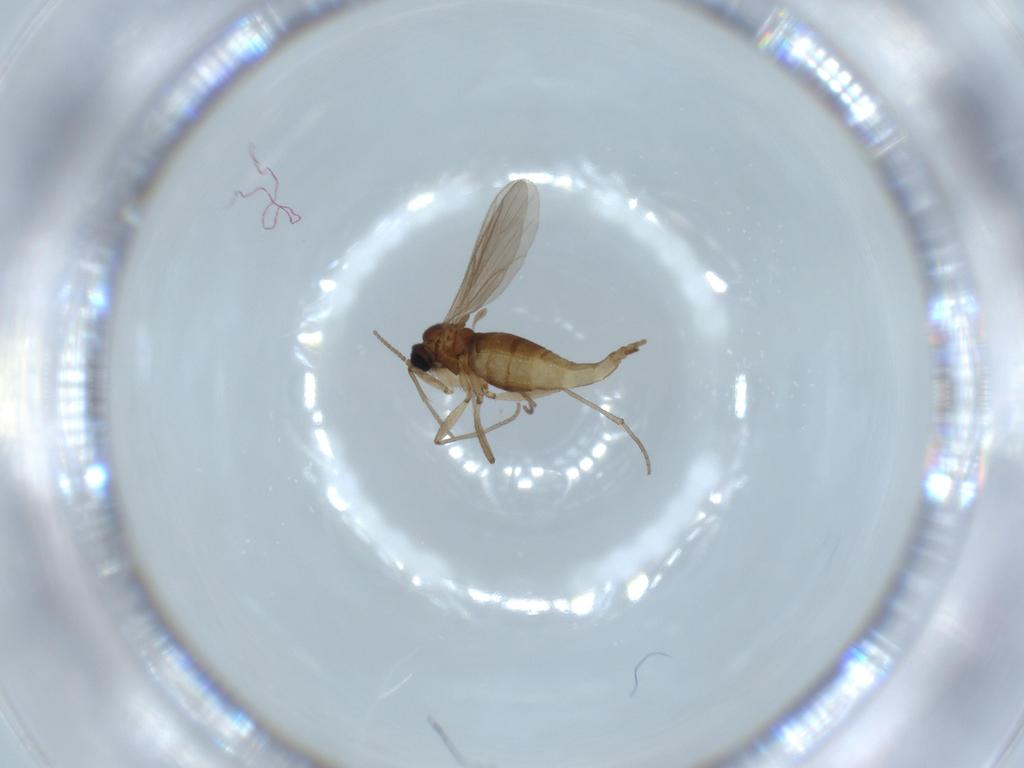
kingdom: Animalia
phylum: Arthropoda
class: Insecta
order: Diptera
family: Sciaridae
